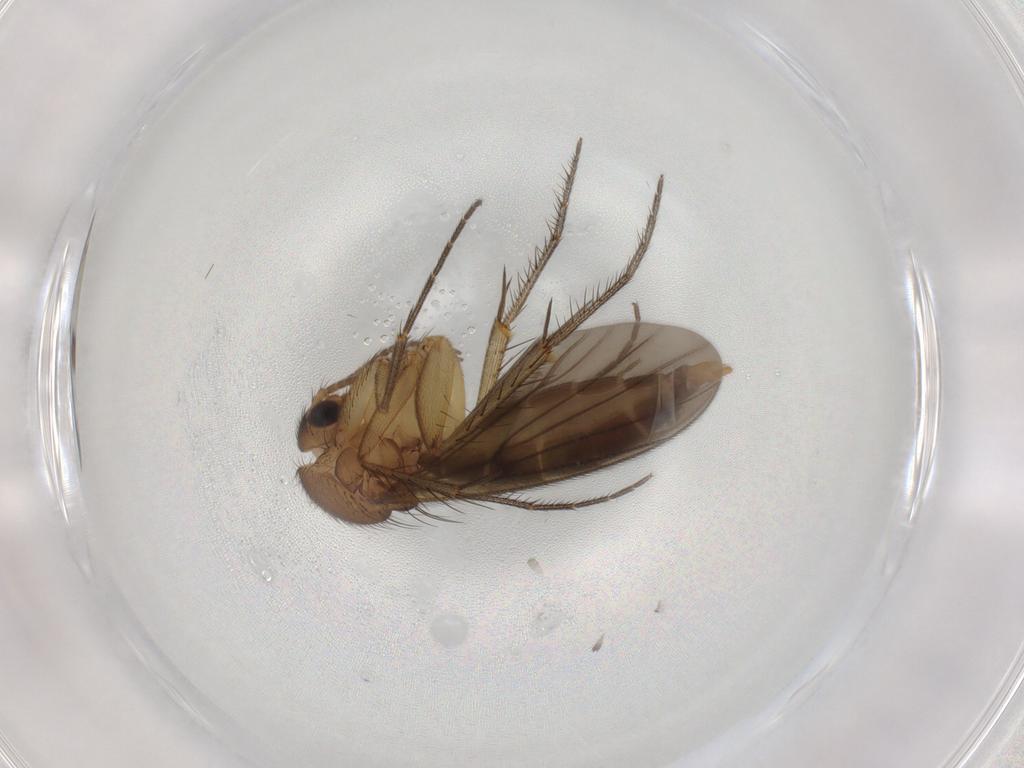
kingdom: Animalia
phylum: Arthropoda
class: Insecta
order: Diptera
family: Mycetophilidae
